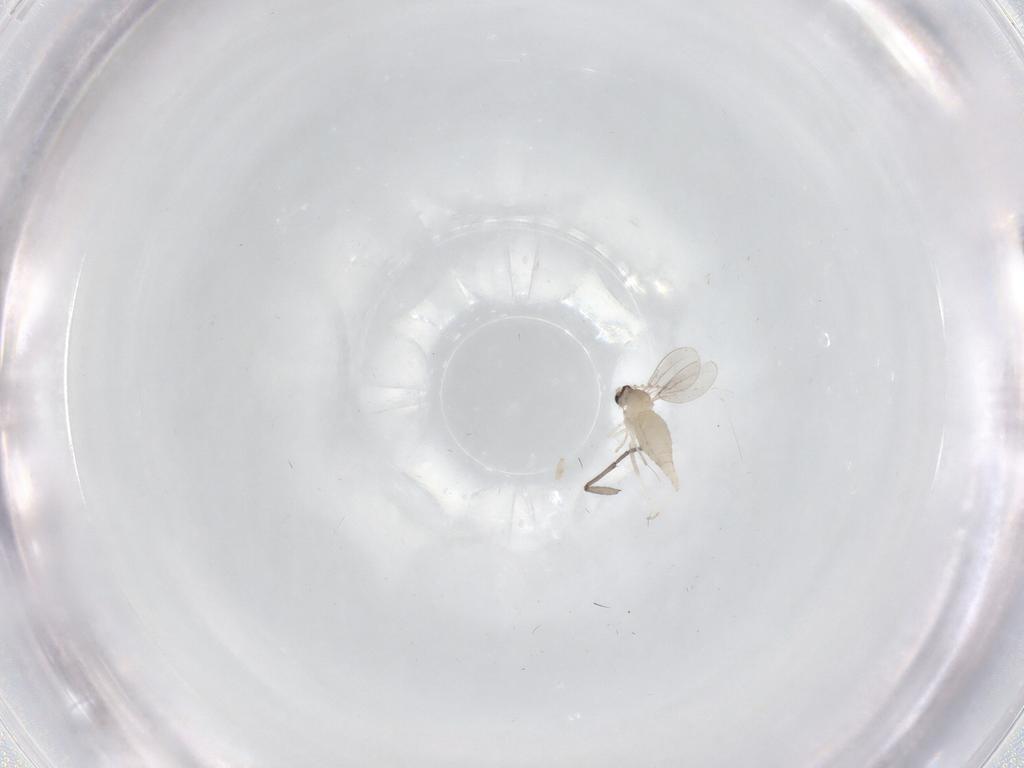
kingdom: Animalia
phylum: Arthropoda
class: Insecta
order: Diptera
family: Cecidomyiidae
